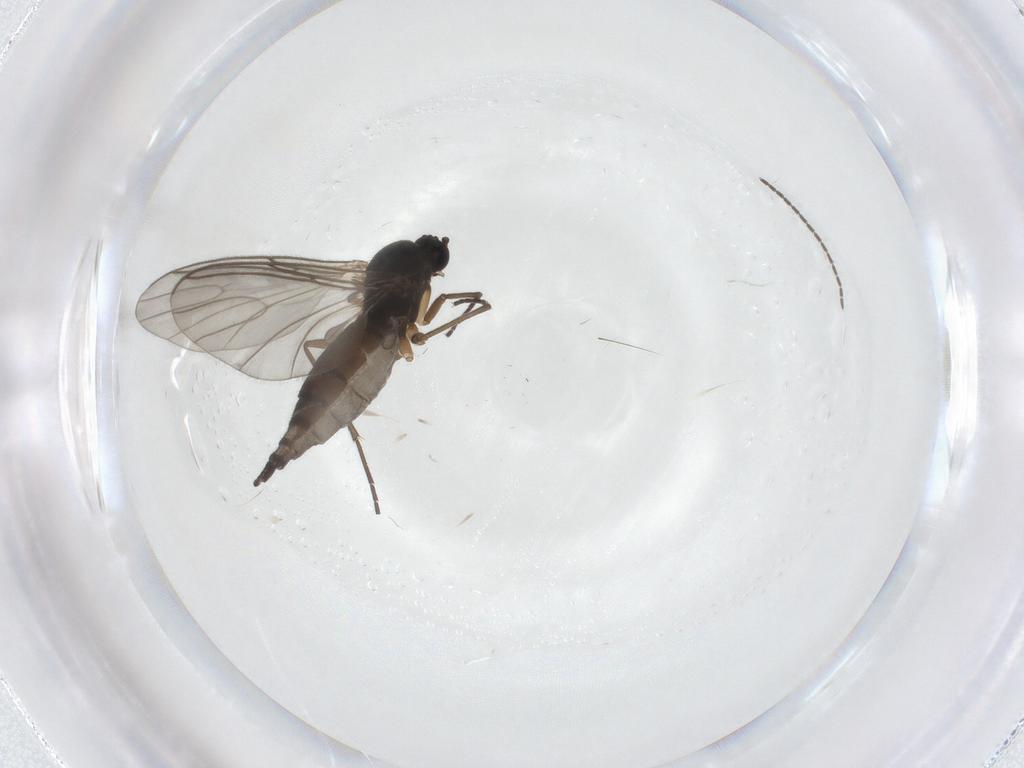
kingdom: Animalia
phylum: Arthropoda
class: Insecta
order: Diptera
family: Sciaridae
